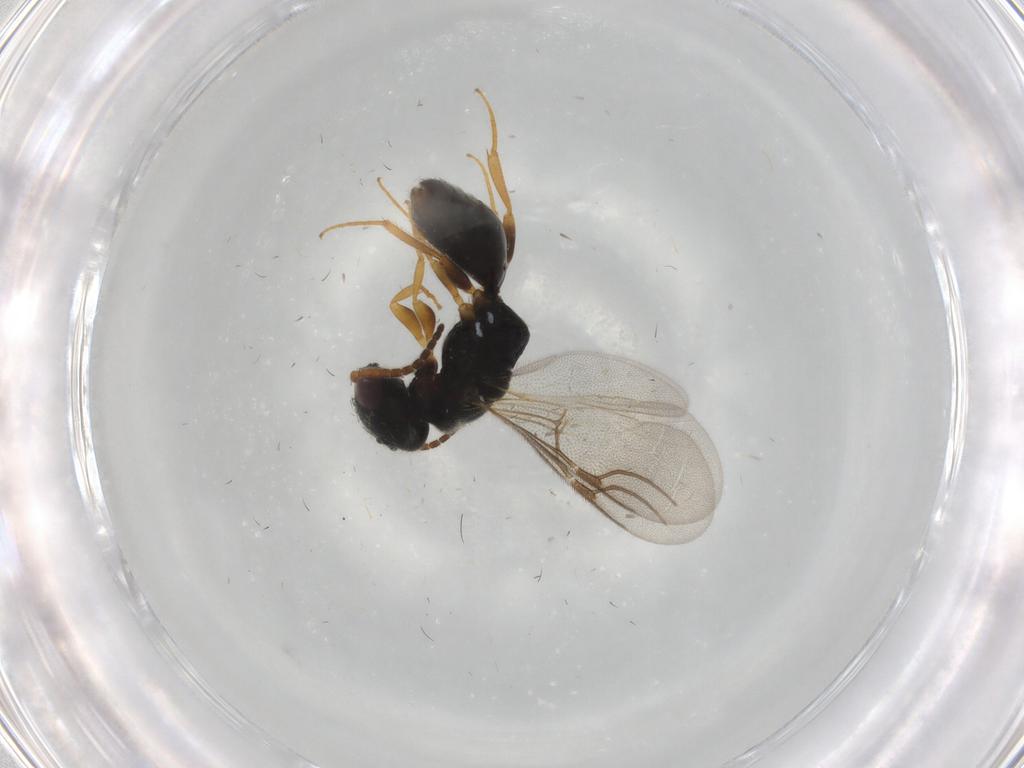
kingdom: Animalia
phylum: Arthropoda
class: Insecta
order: Hymenoptera
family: Bethylidae
